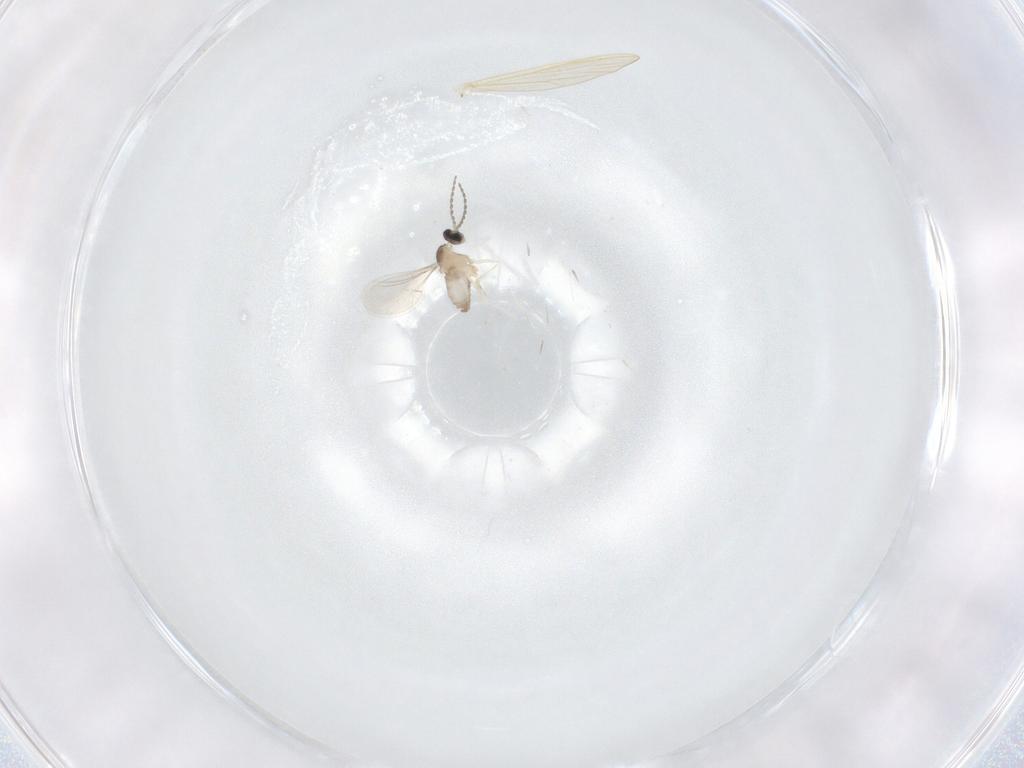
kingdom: Animalia
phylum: Arthropoda
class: Insecta
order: Diptera
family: Cecidomyiidae
